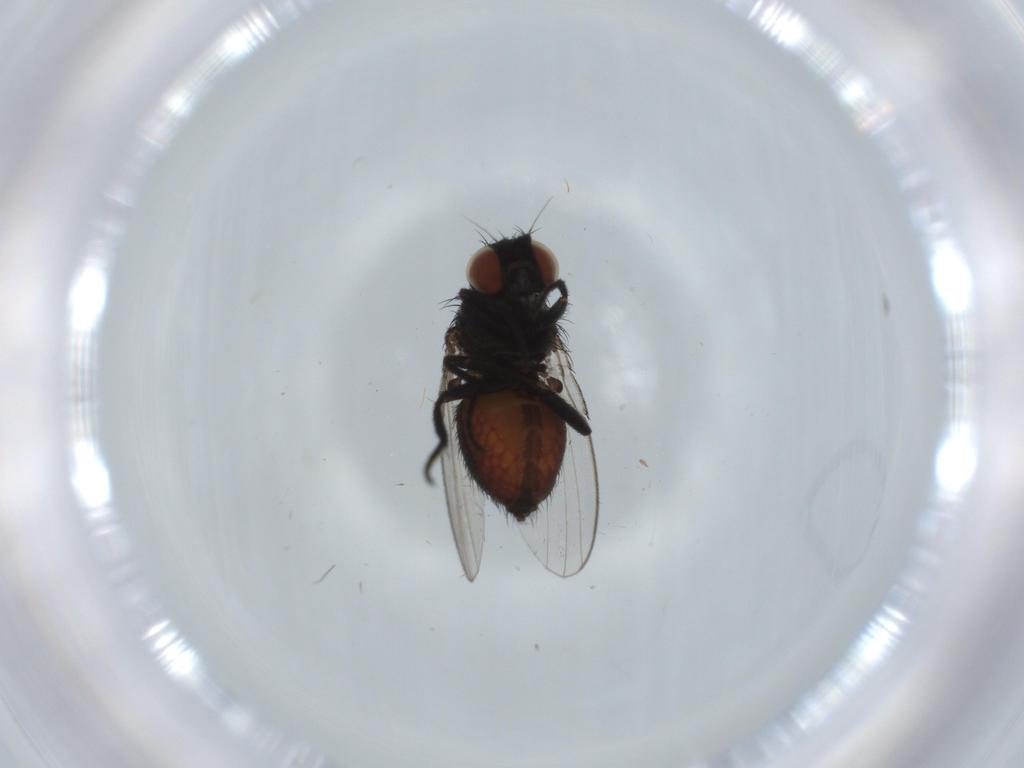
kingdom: Animalia
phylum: Arthropoda
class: Insecta
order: Diptera
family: Milichiidae
